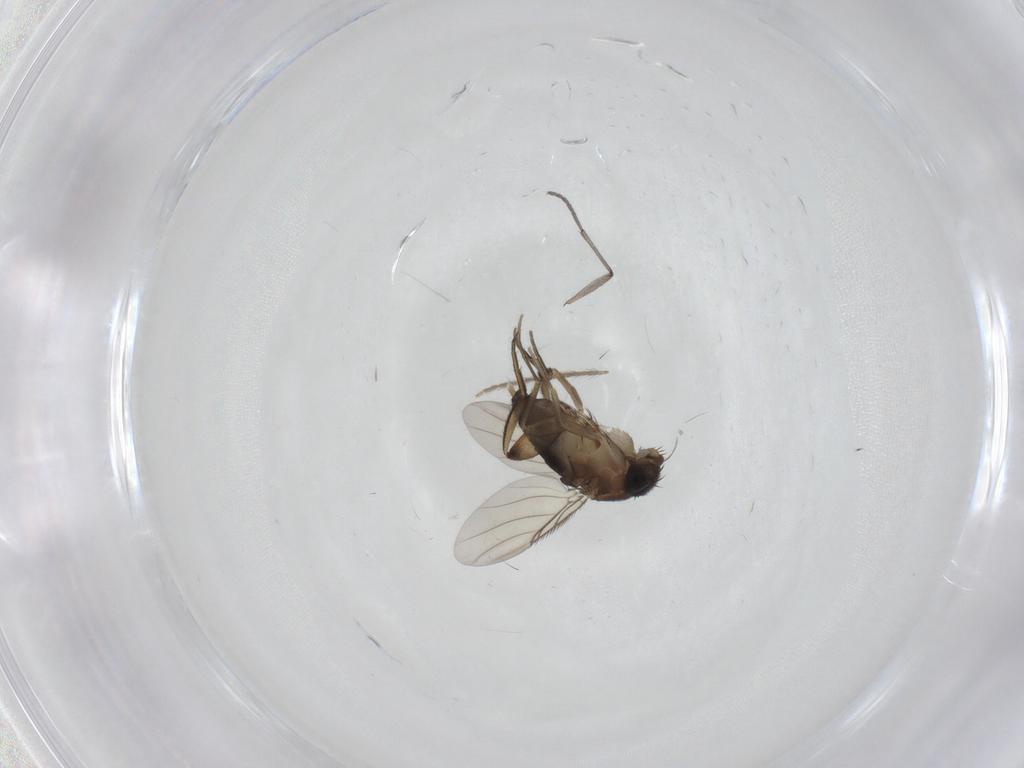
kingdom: Animalia
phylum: Arthropoda
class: Insecta
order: Diptera
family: Phoridae
